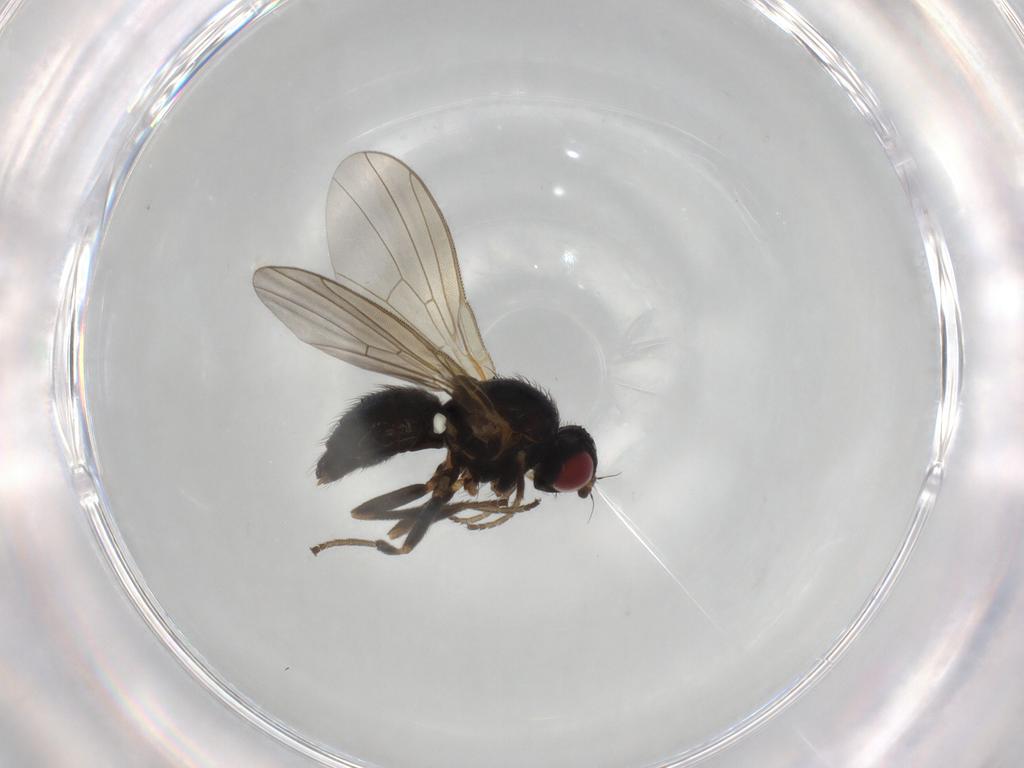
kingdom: Animalia
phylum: Arthropoda
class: Insecta
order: Diptera
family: Agromyzidae
